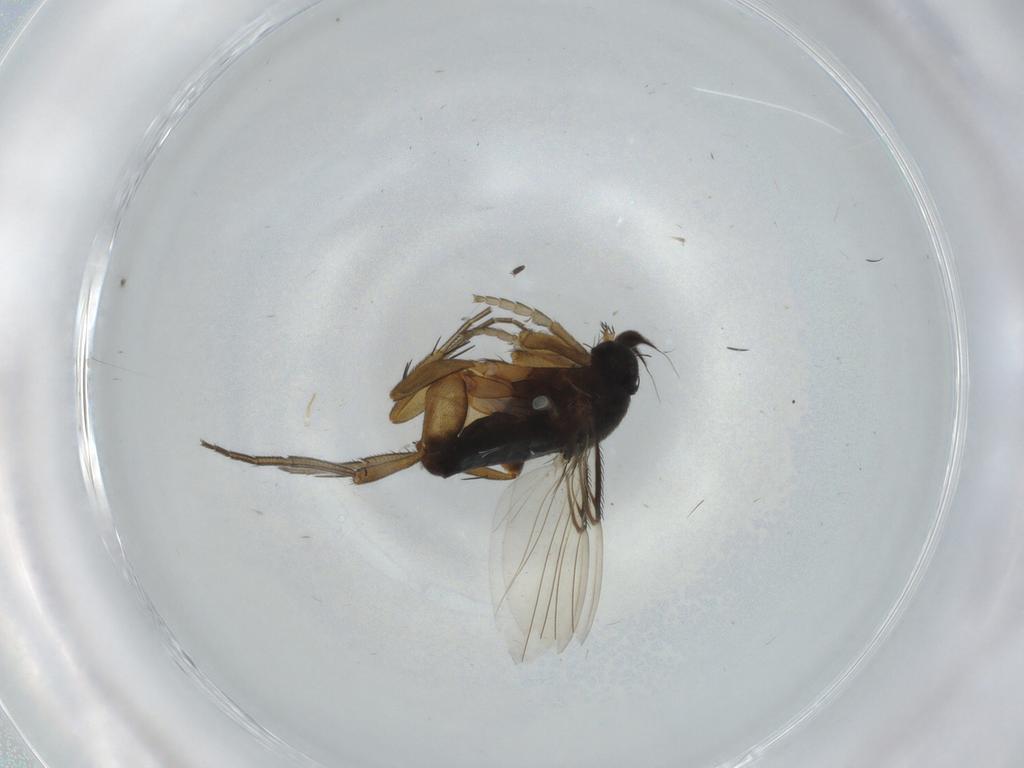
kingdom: Animalia
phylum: Arthropoda
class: Insecta
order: Diptera
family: Phoridae
